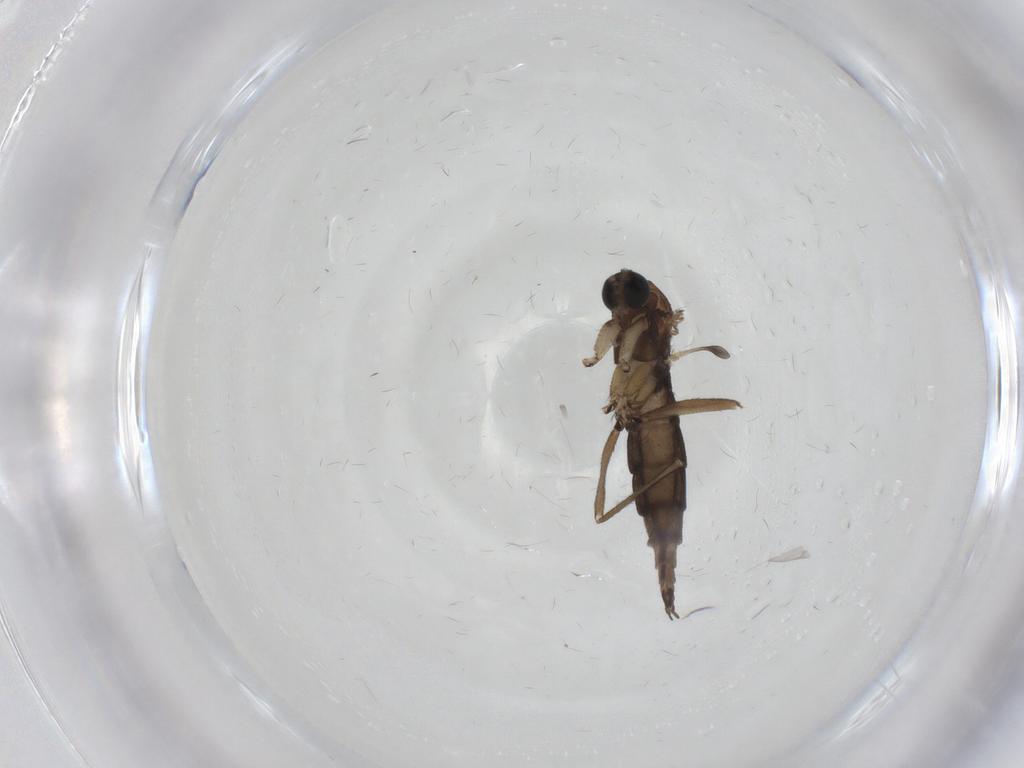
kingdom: Animalia
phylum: Arthropoda
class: Insecta
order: Diptera
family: Sciaridae
